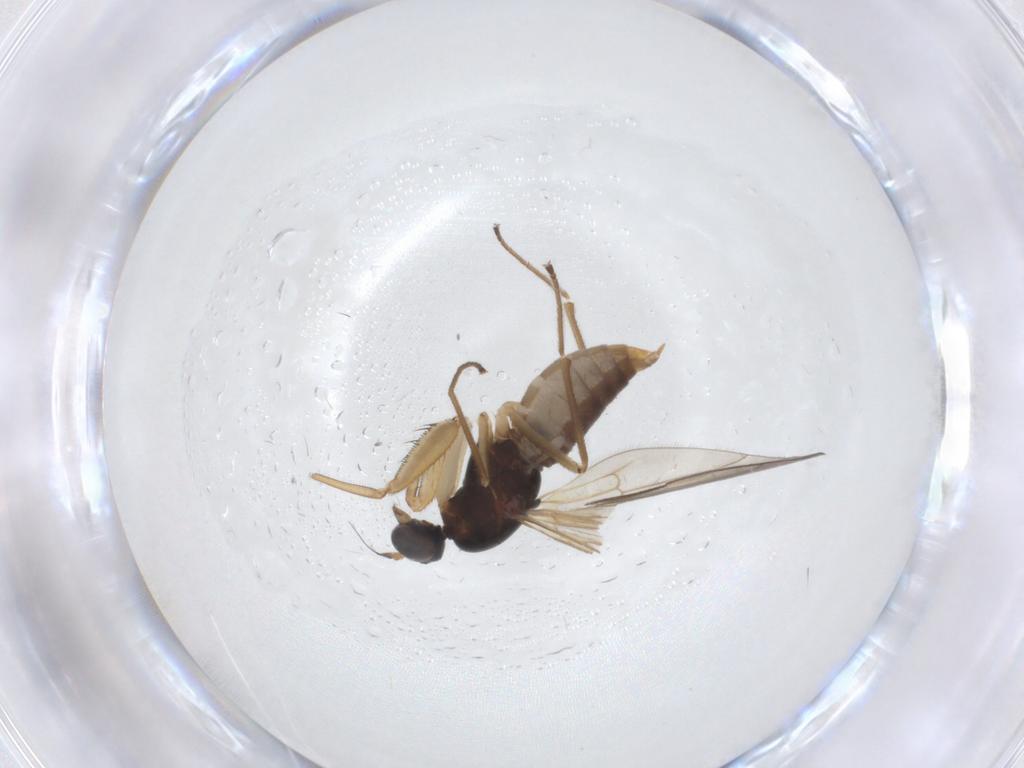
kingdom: Animalia
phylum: Arthropoda
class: Insecta
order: Diptera
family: Empididae
